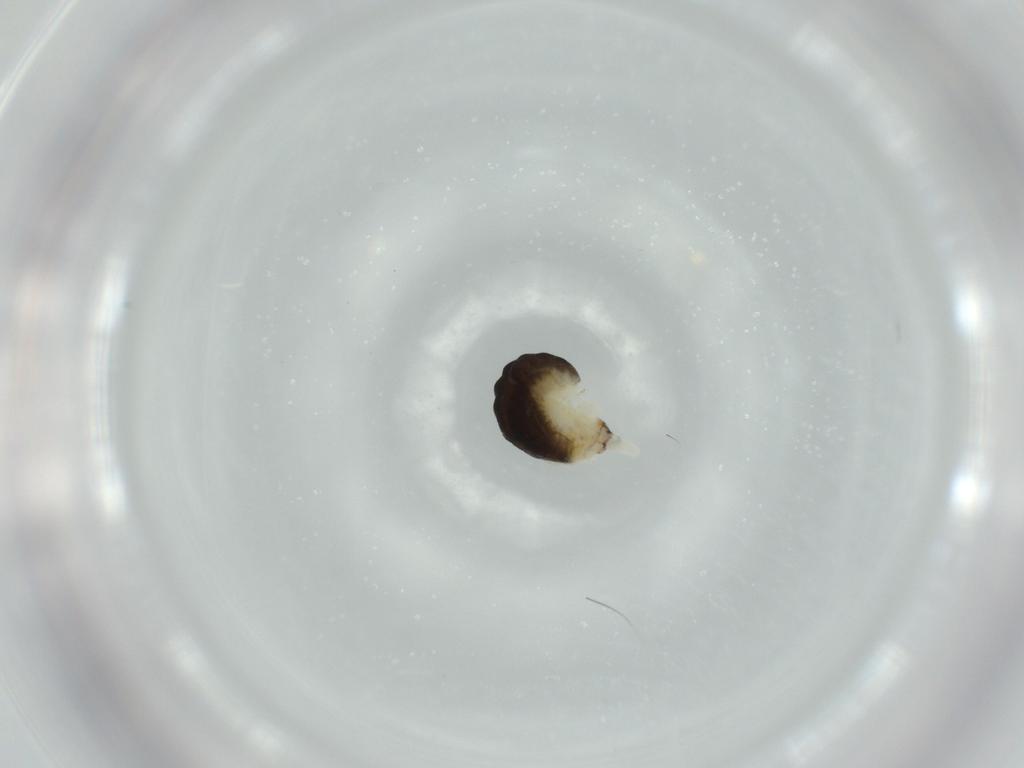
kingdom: Animalia
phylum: Arthropoda
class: Insecta
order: Hymenoptera
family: Dryinidae
